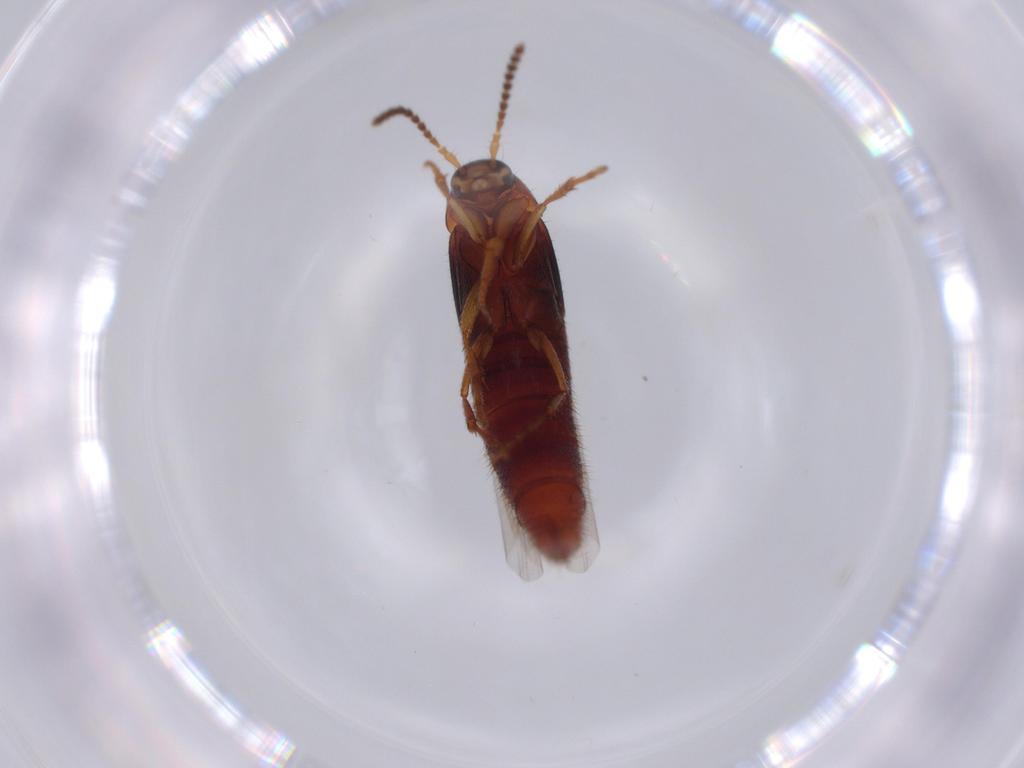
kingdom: Animalia
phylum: Arthropoda
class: Insecta
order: Coleoptera
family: Staphylinidae
